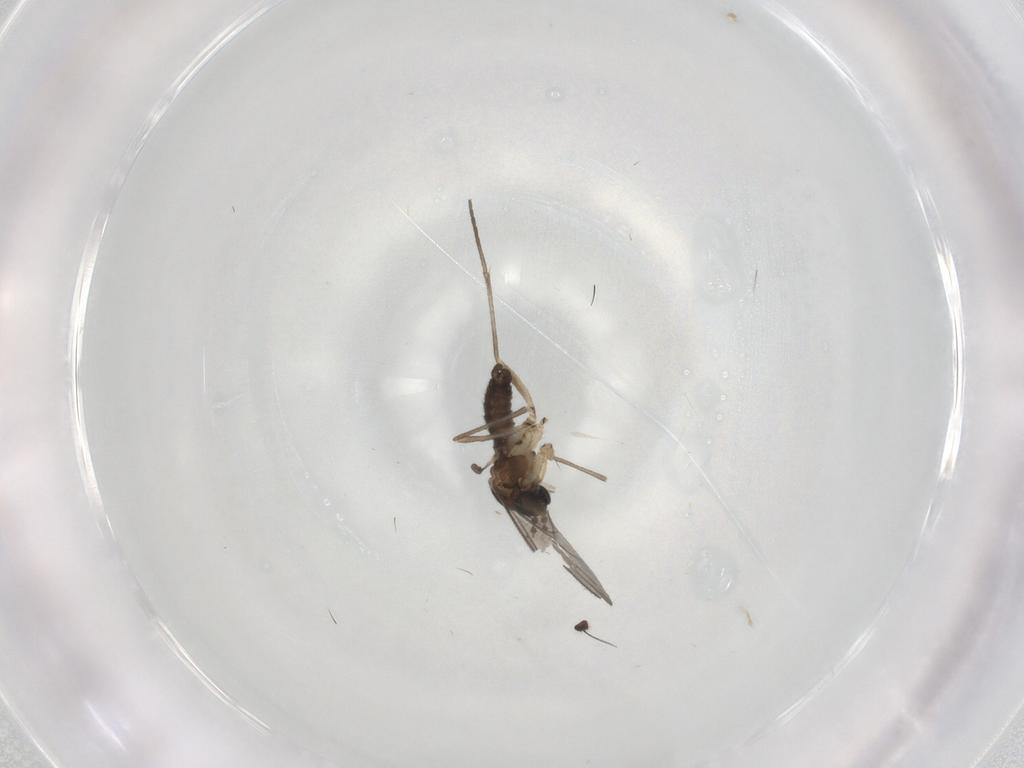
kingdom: Animalia
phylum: Arthropoda
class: Insecta
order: Diptera
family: Sciaridae
